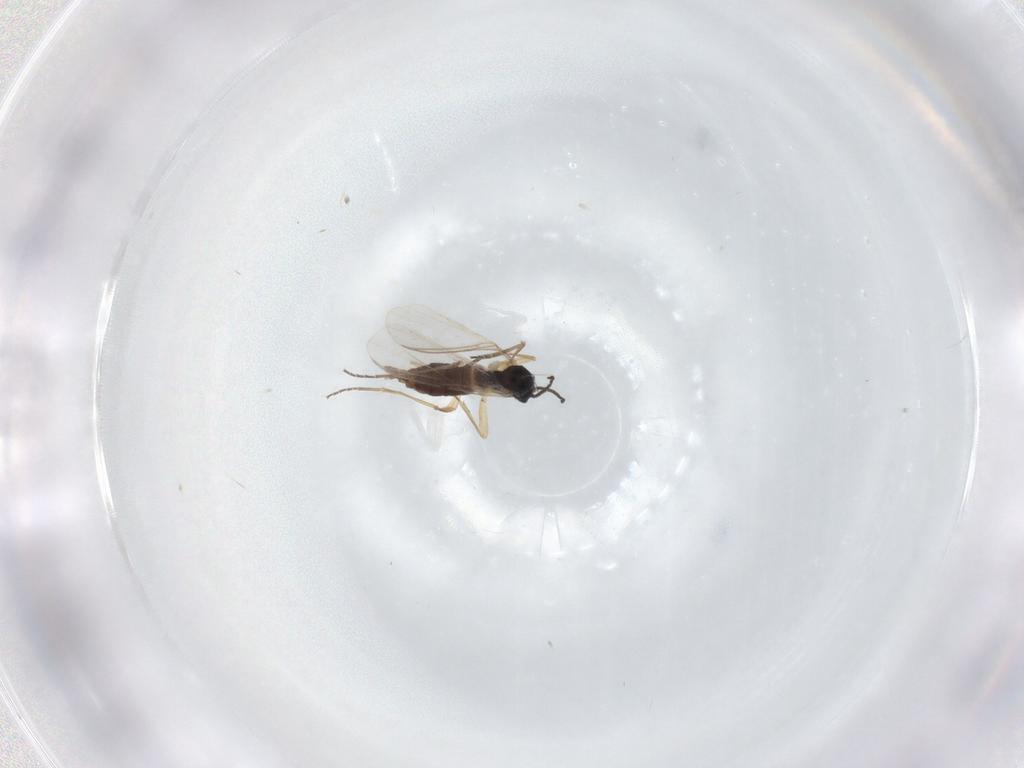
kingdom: Animalia
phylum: Arthropoda
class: Insecta
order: Diptera
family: Sciaridae
